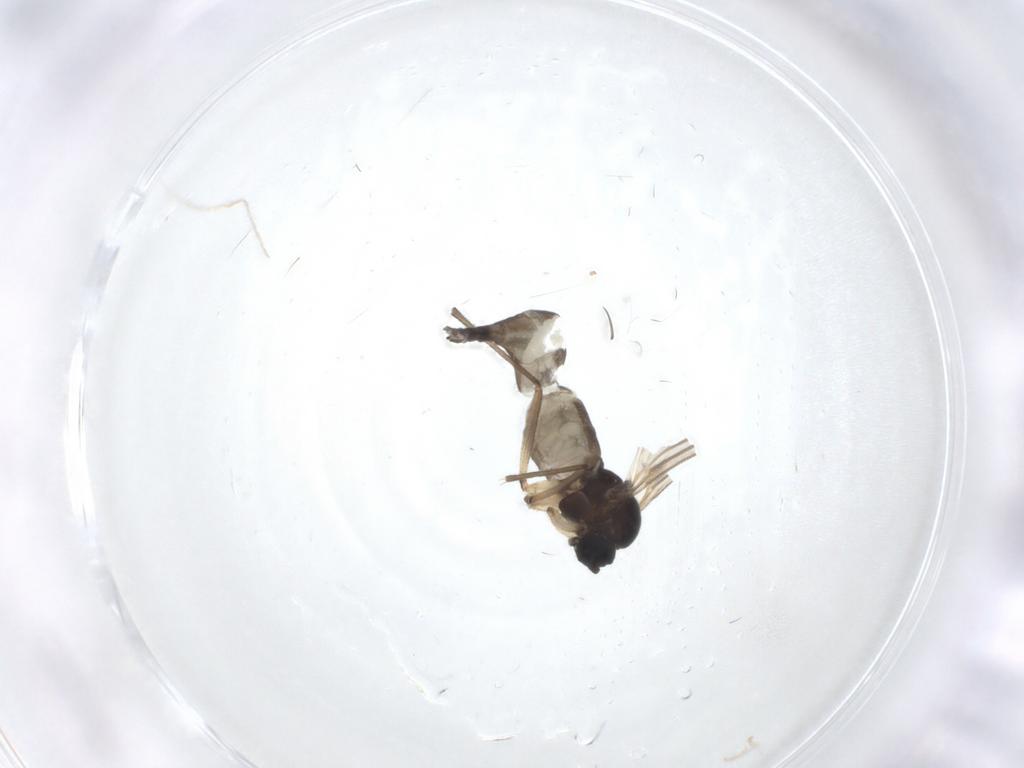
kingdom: Animalia
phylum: Arthropoda
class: Insecta
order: Diptera
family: Sciaridae
